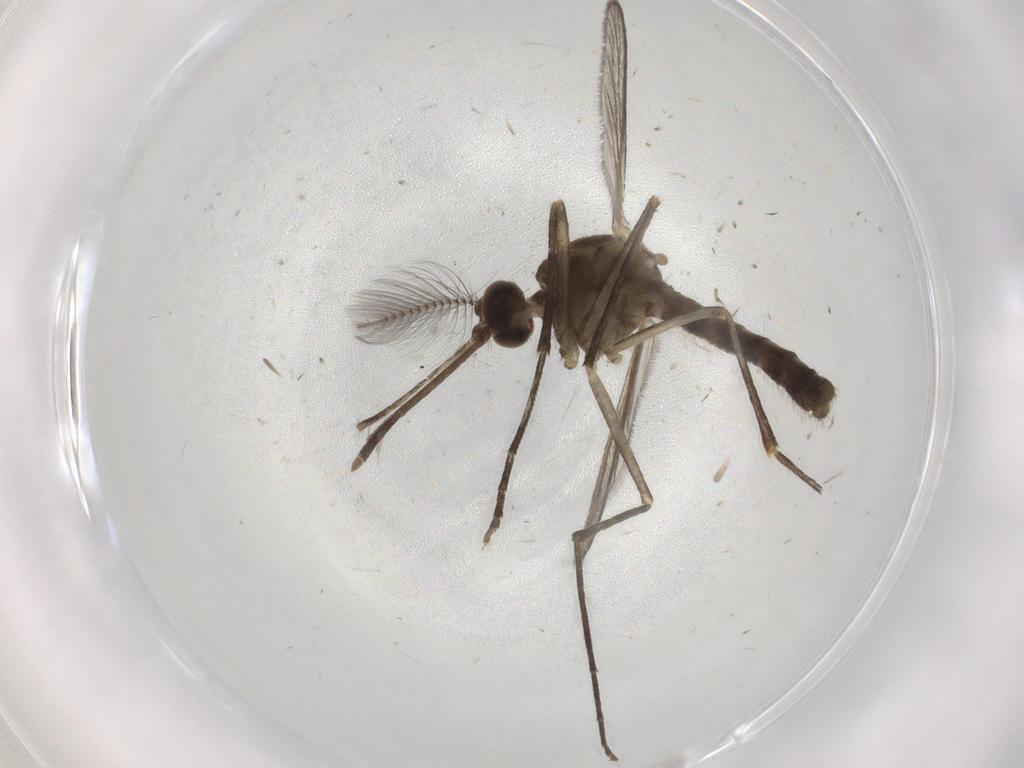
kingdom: Animalia
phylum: Arthropoda
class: Insecta
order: Diptera
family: Culicidae
